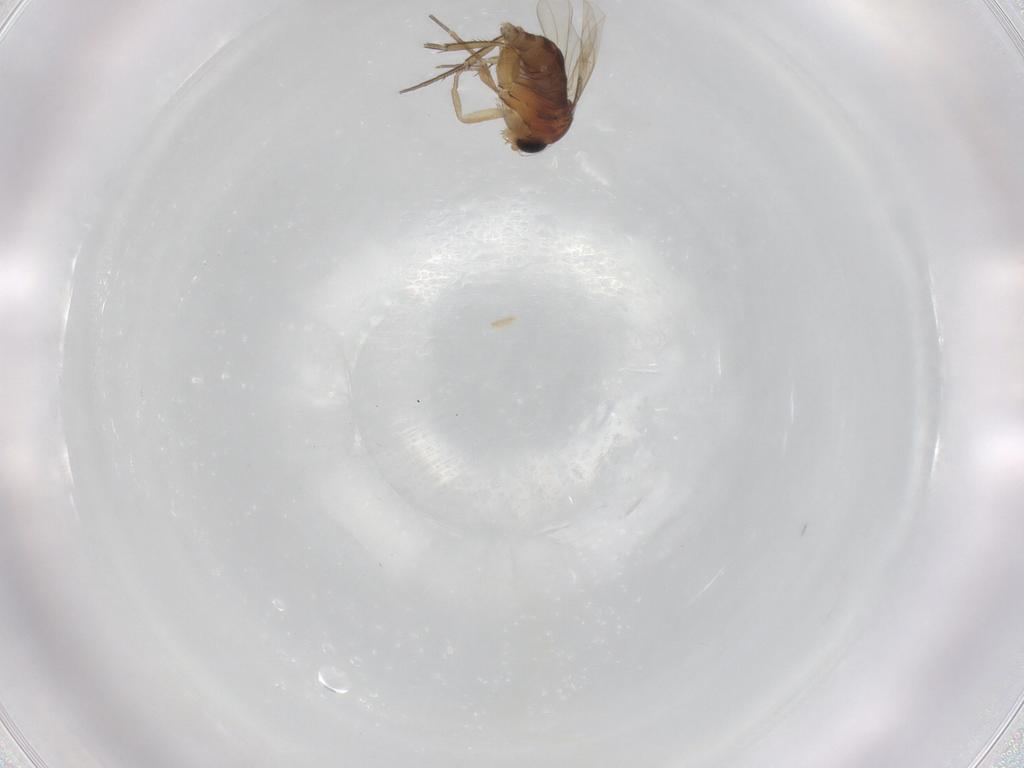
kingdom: Animalia
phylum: Arthropoda
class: Insecta
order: Diptera
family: Phoridae
